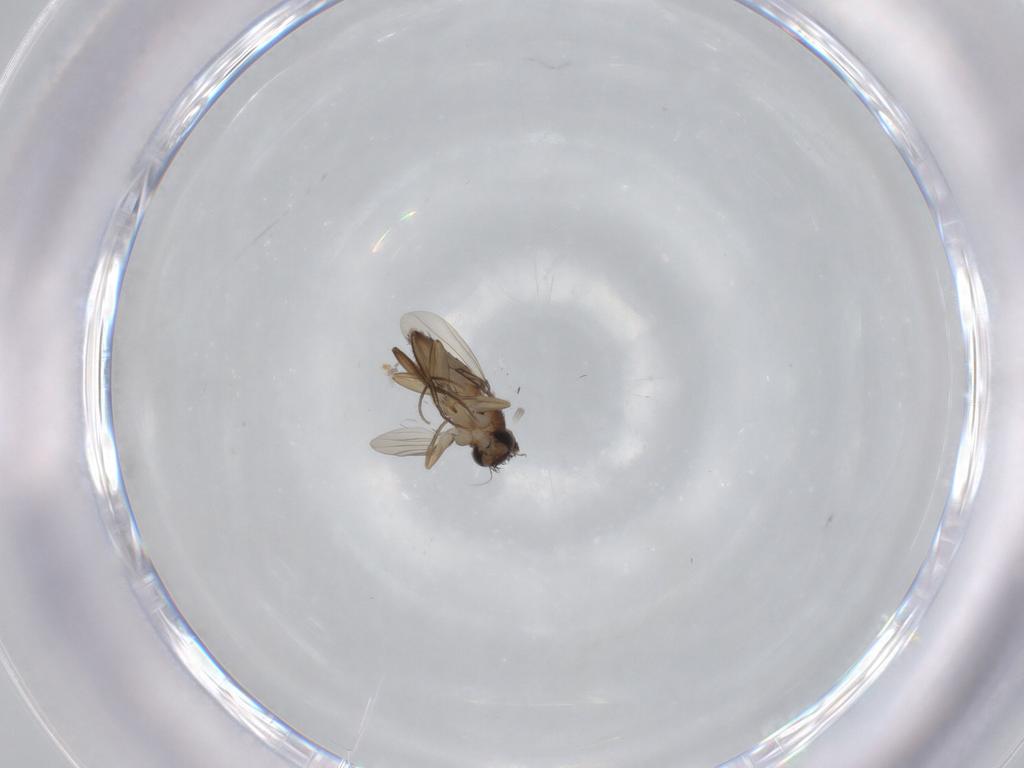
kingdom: Animalia
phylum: Arthropoda
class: Insecta
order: Diptera
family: Phoridae
